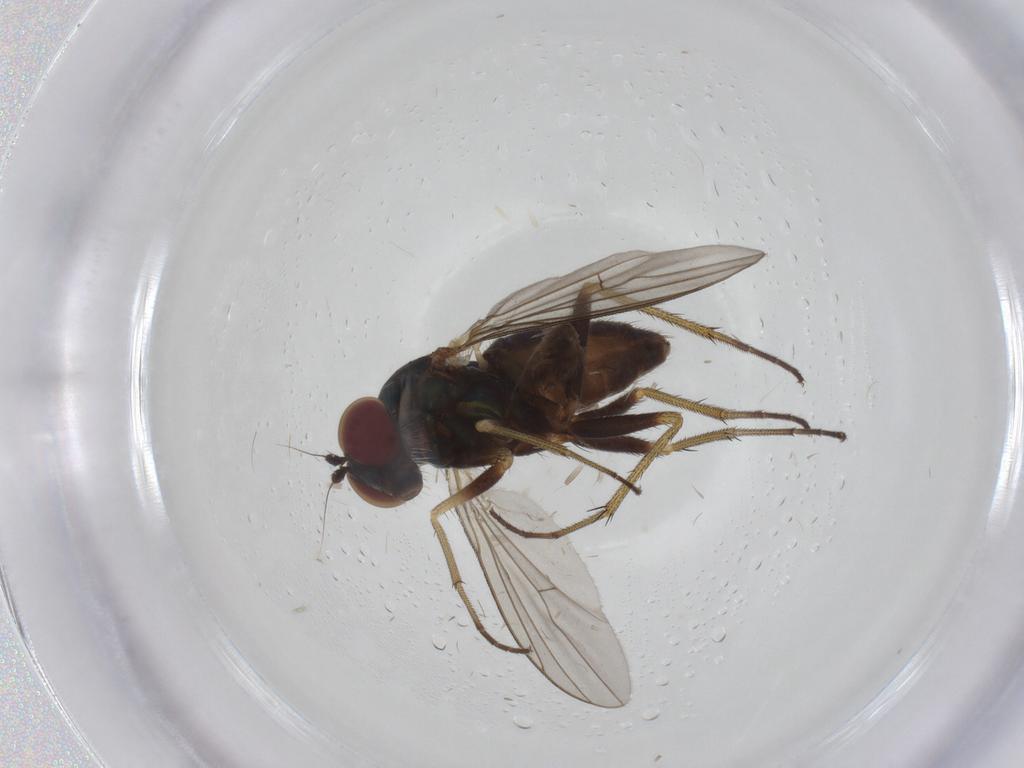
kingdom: Animalia
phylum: Arthropoda
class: Insecta
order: Diptera
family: Dolichopodidae
